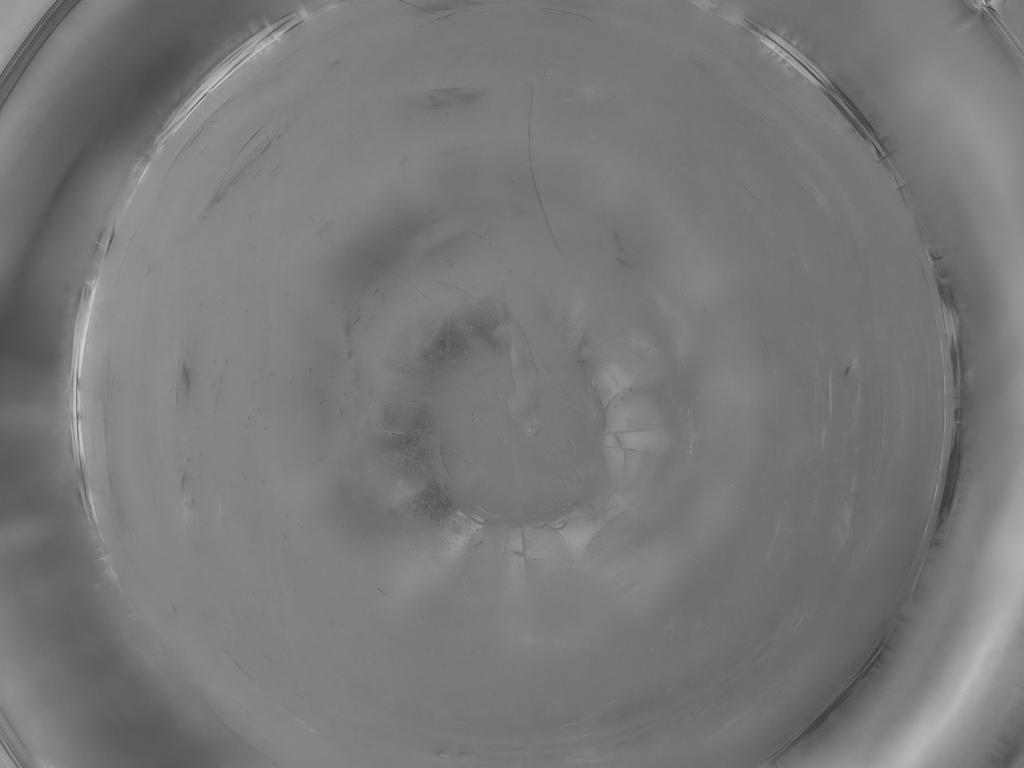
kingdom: Animalia
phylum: Arthropoda
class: Insecta
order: Diptera
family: Cecidomyiidae
